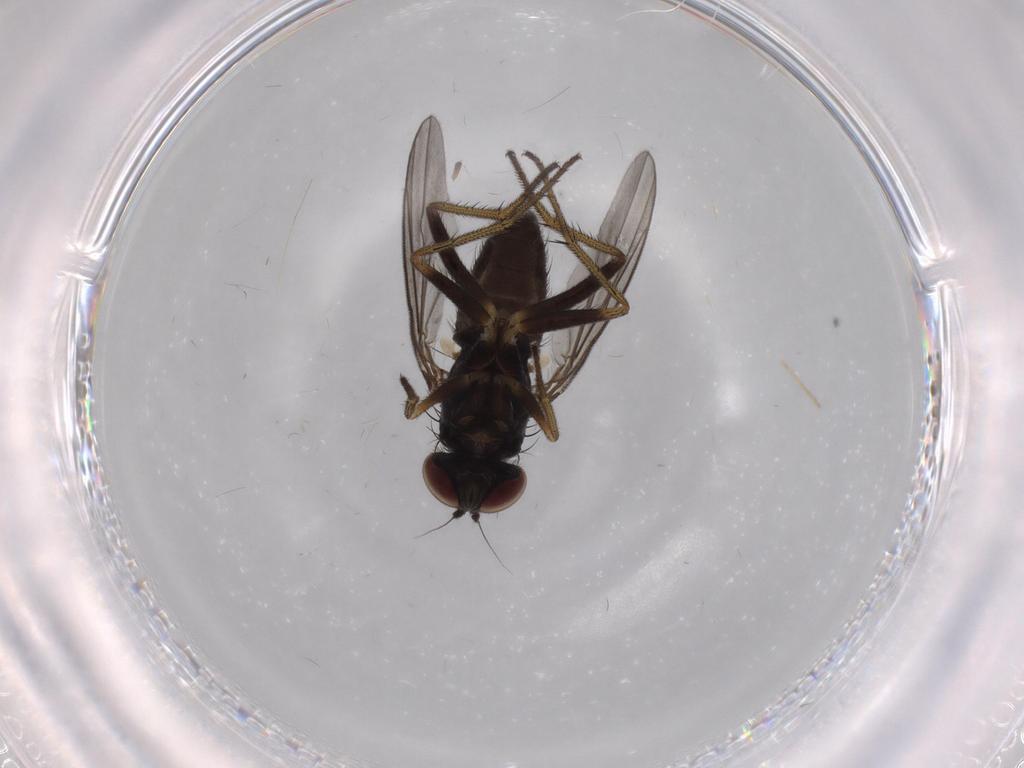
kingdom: Animalia
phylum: Arthropoda
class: Insecta
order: Diptera
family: Dolichopodidae
